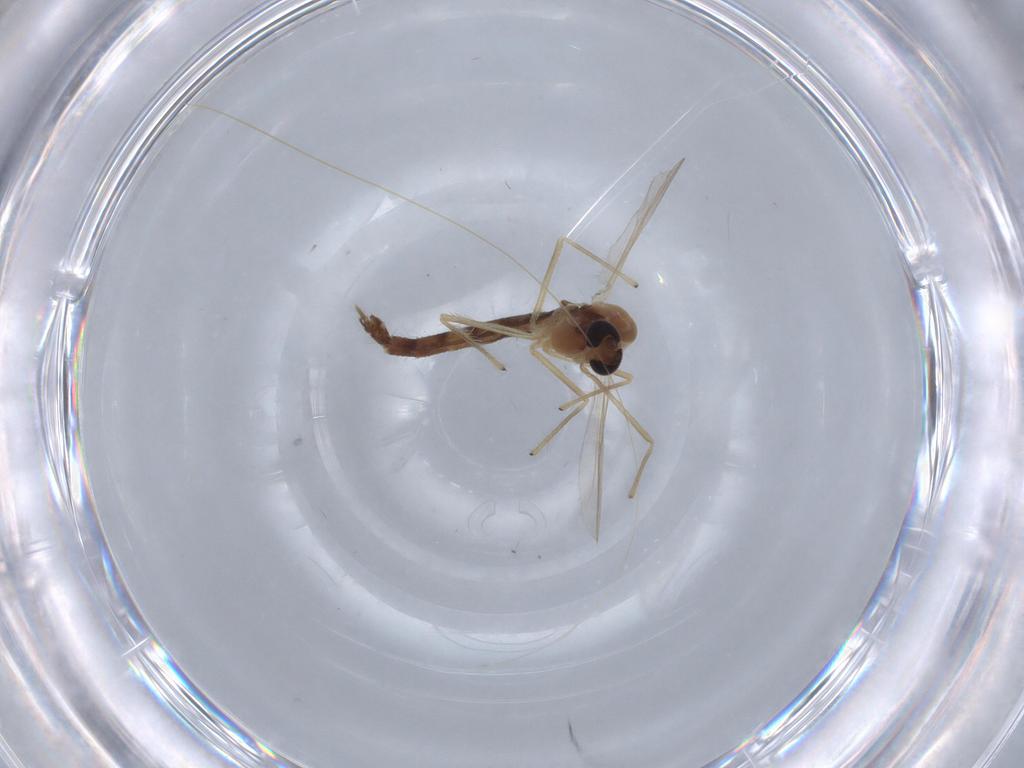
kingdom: Animalia
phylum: Arthropoda
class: Insecta
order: Diptera
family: Chironomidae
